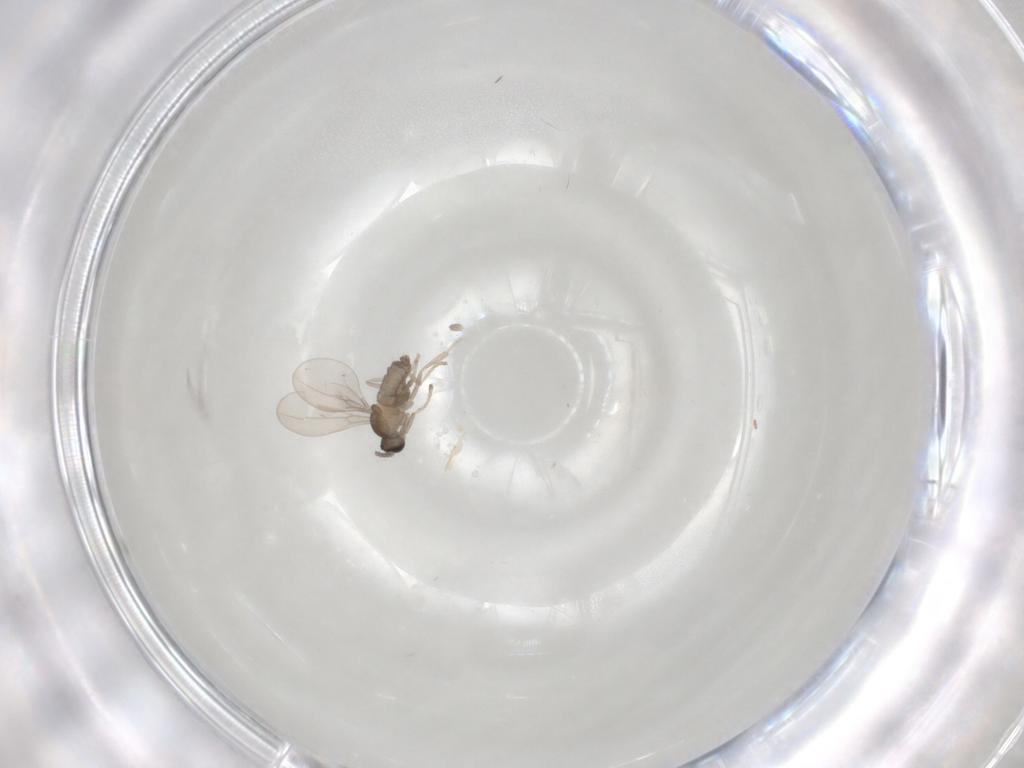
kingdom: Animalia
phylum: Arthropoda
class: Insecta
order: Diptera
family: Cecidomyiidae
